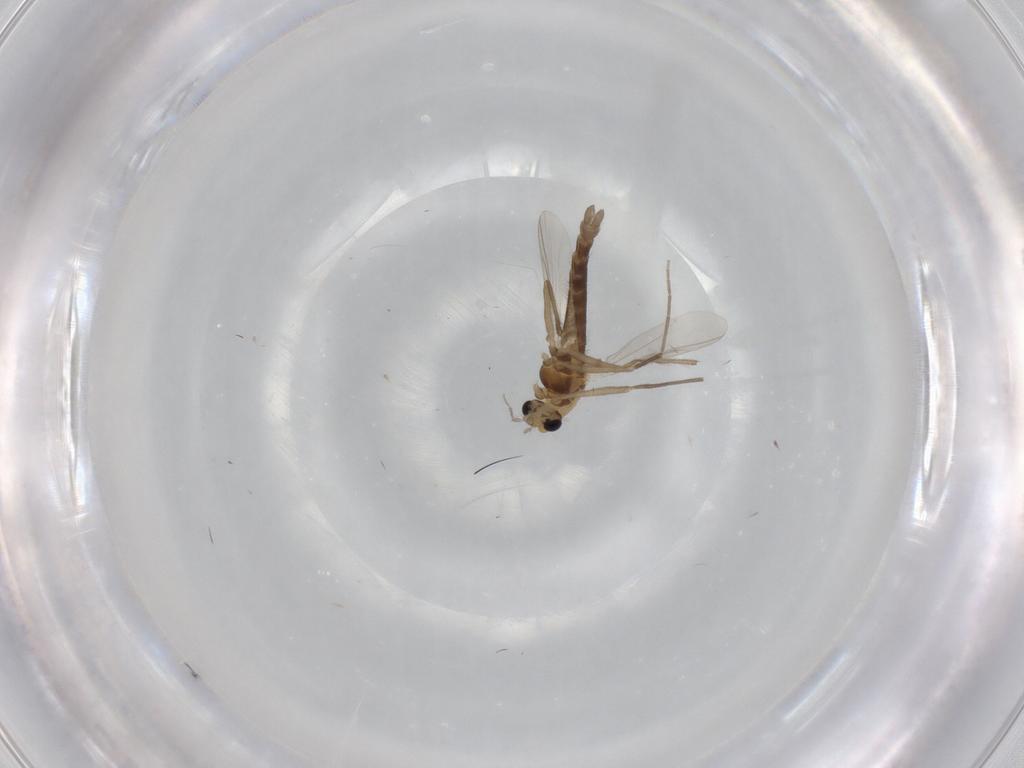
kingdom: Animalia
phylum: Arthropoda
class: Insecta
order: Diptera
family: Chironomidae
